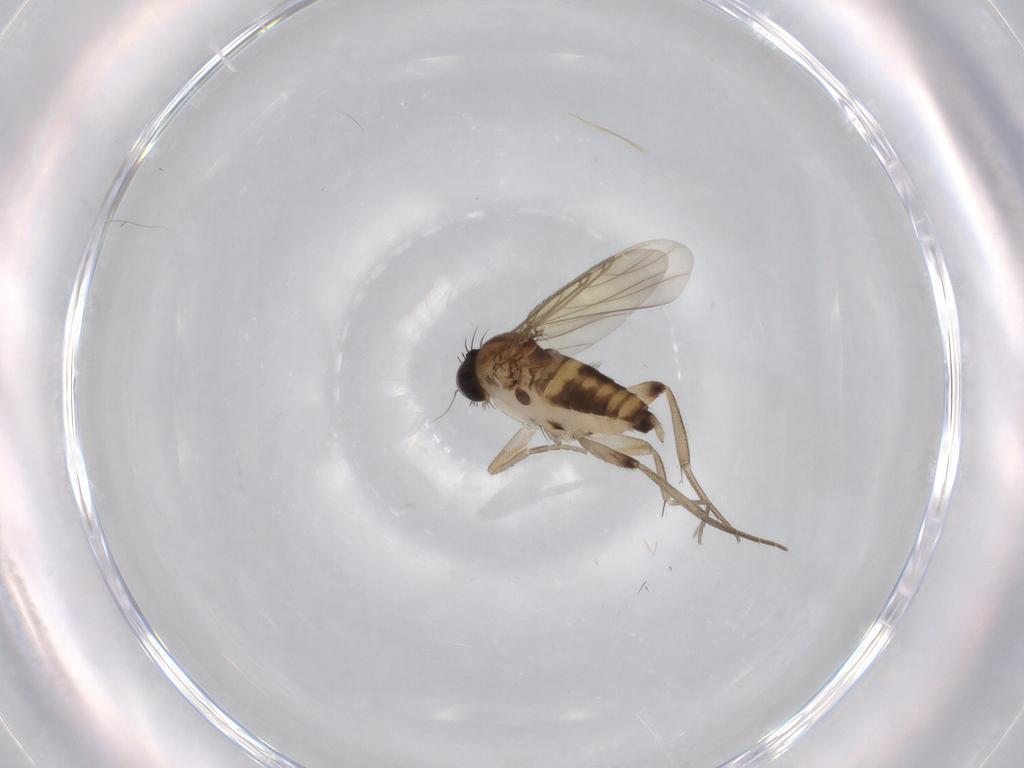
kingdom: Animalia
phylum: Arthropoda
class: Insecta
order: Diptera
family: Phoridae
